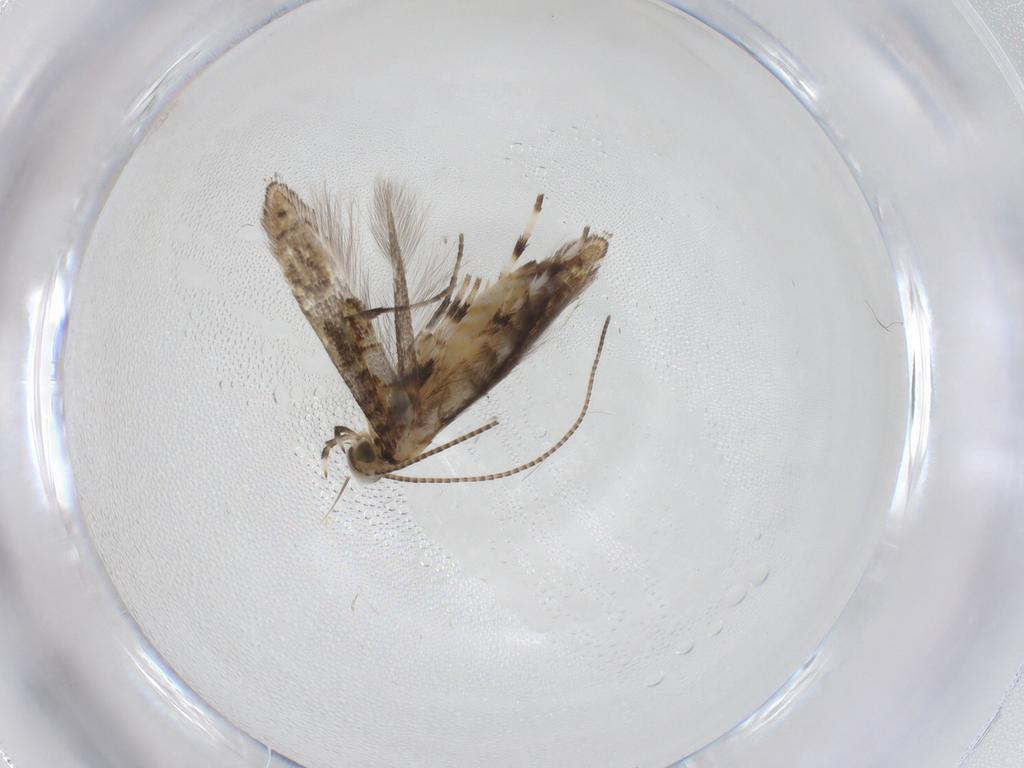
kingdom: Animalia
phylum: Arthropoda
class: Insecta
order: Lepidoptera
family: Gracillariidae
